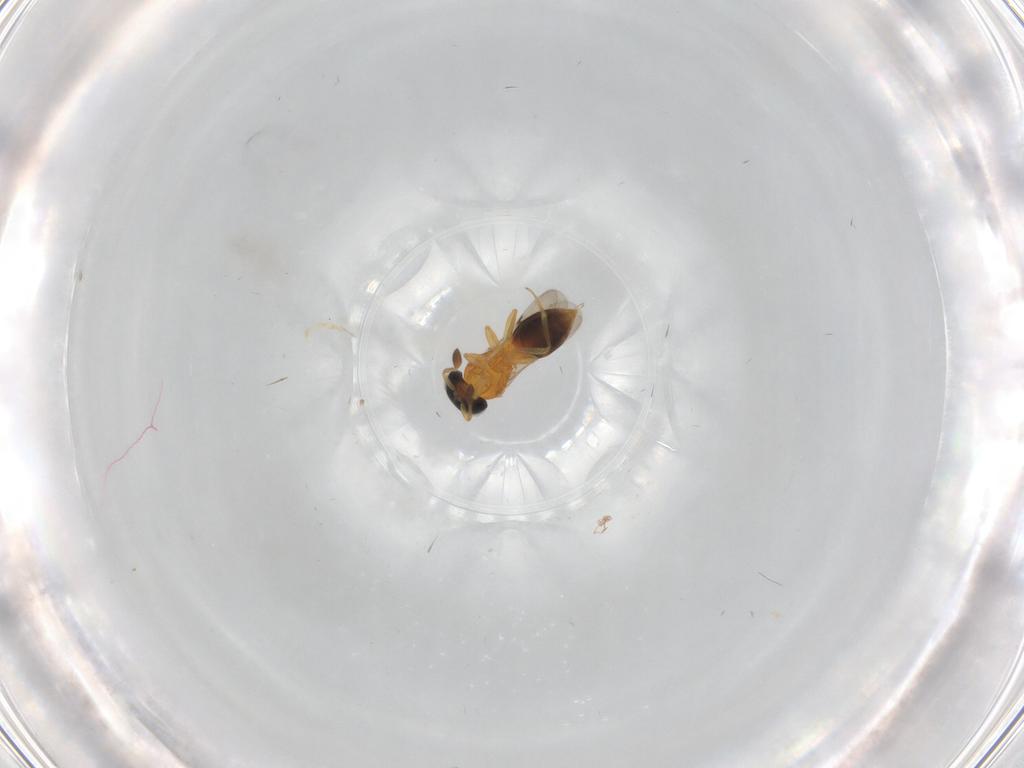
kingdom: Animalia
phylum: Arthropoda
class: Insecta
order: Hymenoptera
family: Scelionidae
